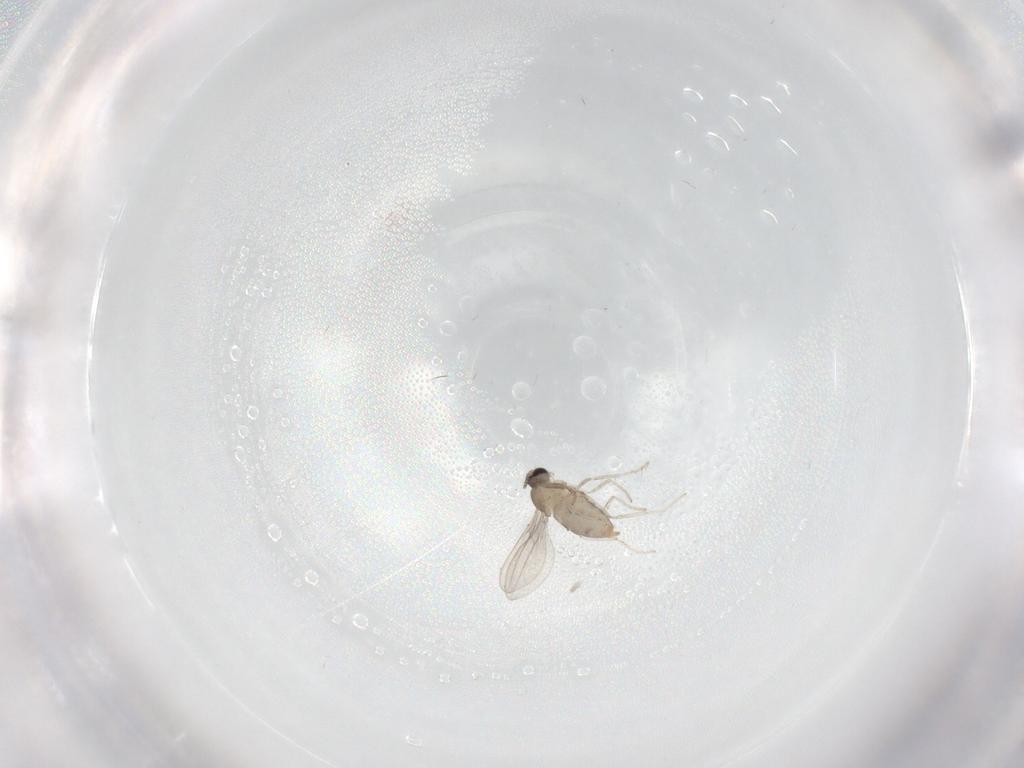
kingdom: Animalia
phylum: Arthropoda
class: Insecta
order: Diptera
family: Cecidomyiidae
